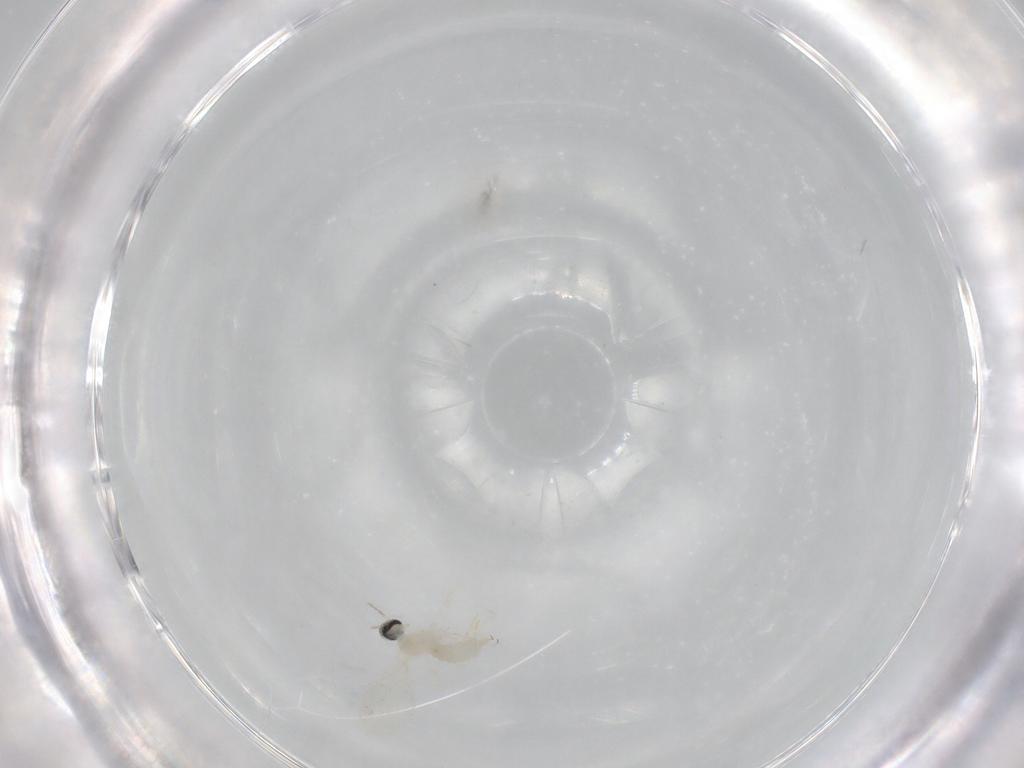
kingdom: Animalia
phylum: Arthropoda
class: Insecta
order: Diptera
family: Cecidomyiidae
